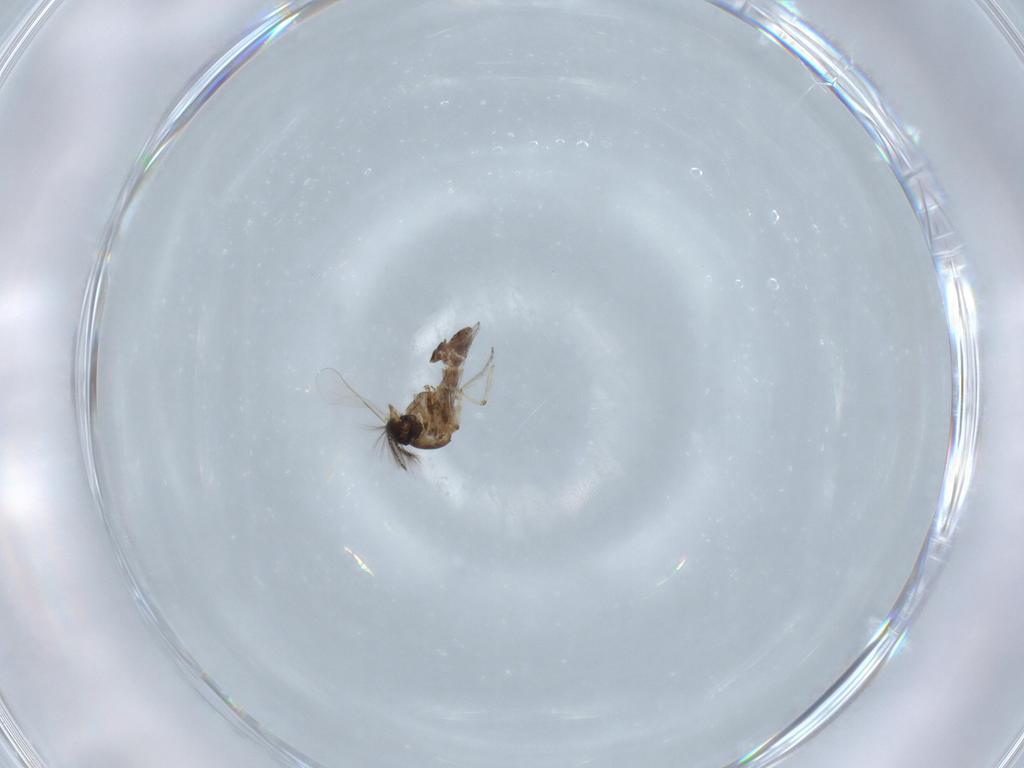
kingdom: Animalia
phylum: Arthropoda
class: Insecta
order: Diptera
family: Ceratopogonidae
